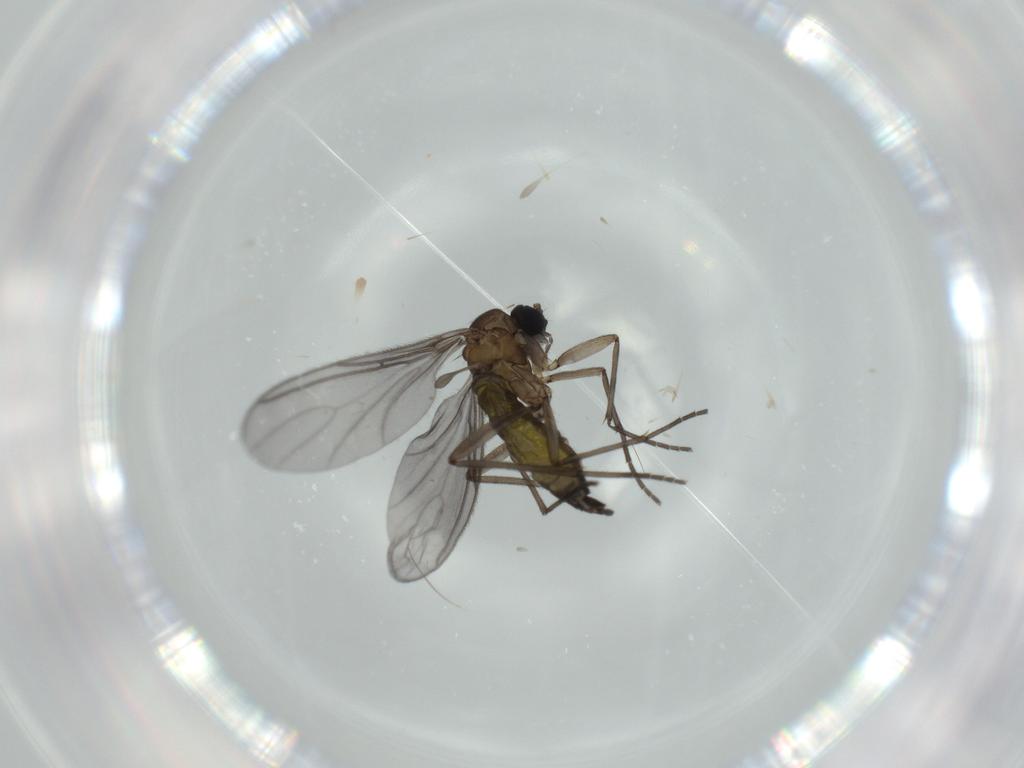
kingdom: Animalia
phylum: Arthropoda
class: Insecta
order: Diptera
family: Sciaridae
